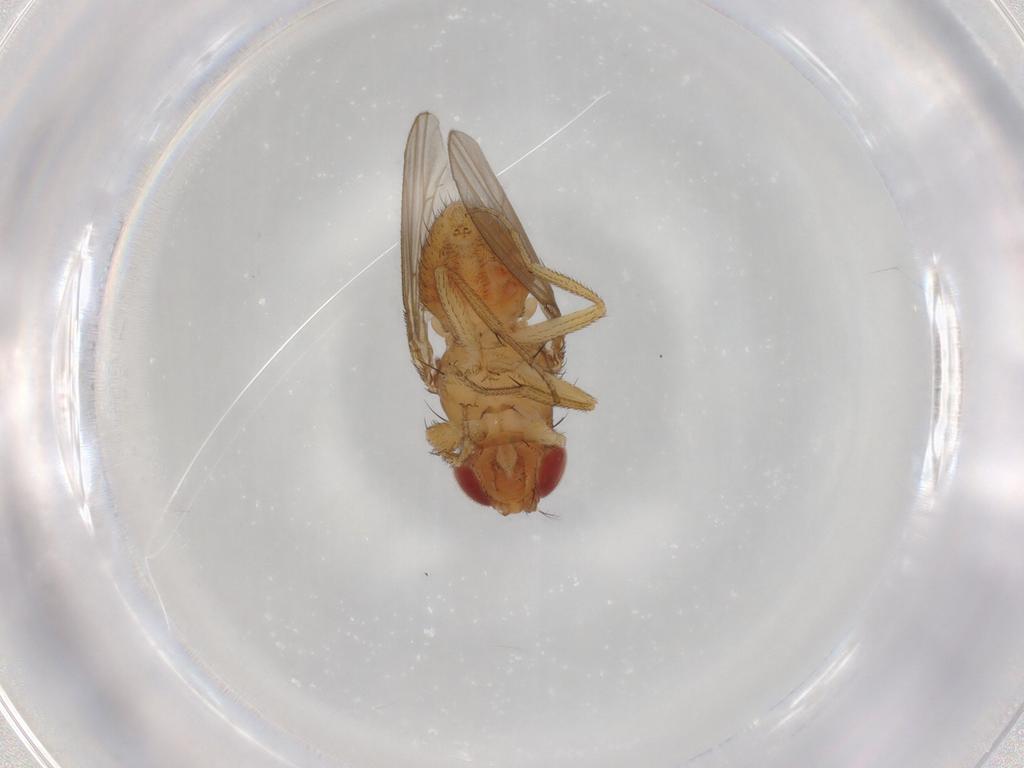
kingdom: Animalia
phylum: Arthropoda
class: Insecta
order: Diptera
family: Drosophilidae
